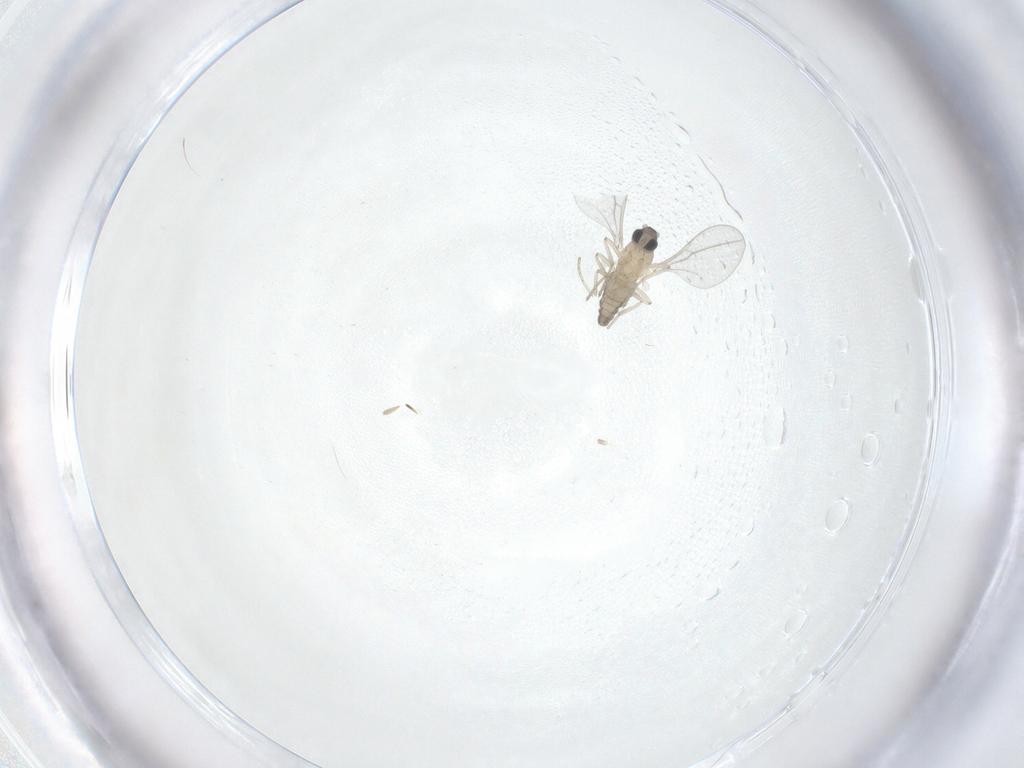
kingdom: Animalia
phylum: Arthropoda
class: Insecta
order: Diptera
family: Cecidomyiidae
